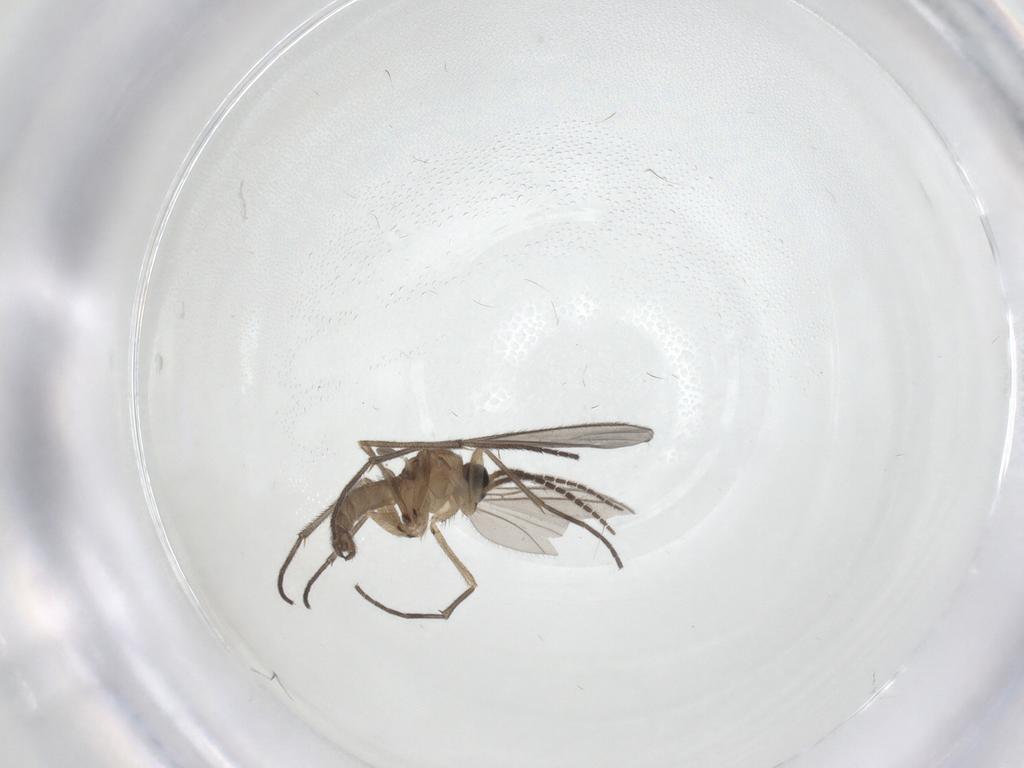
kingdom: Animalia
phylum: Arthropoda
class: Insecta
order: Diptera
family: Sciaridae
